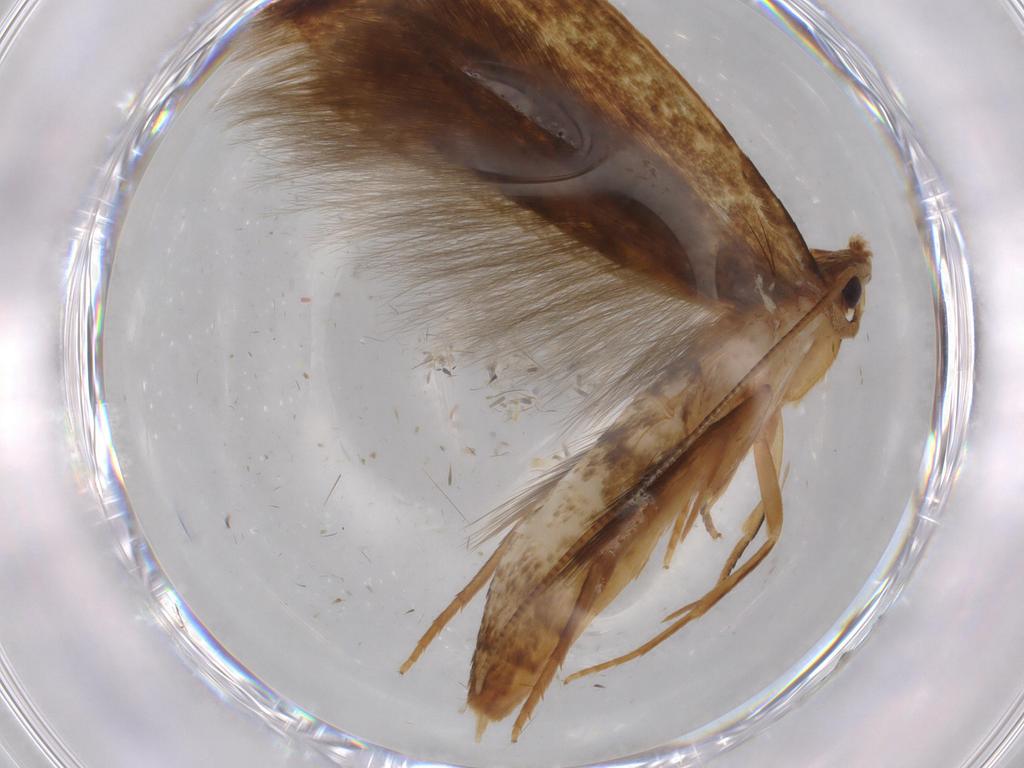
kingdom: Animalia
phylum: Arthropoda
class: Insecta
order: Lepidoptera
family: Tineidae
